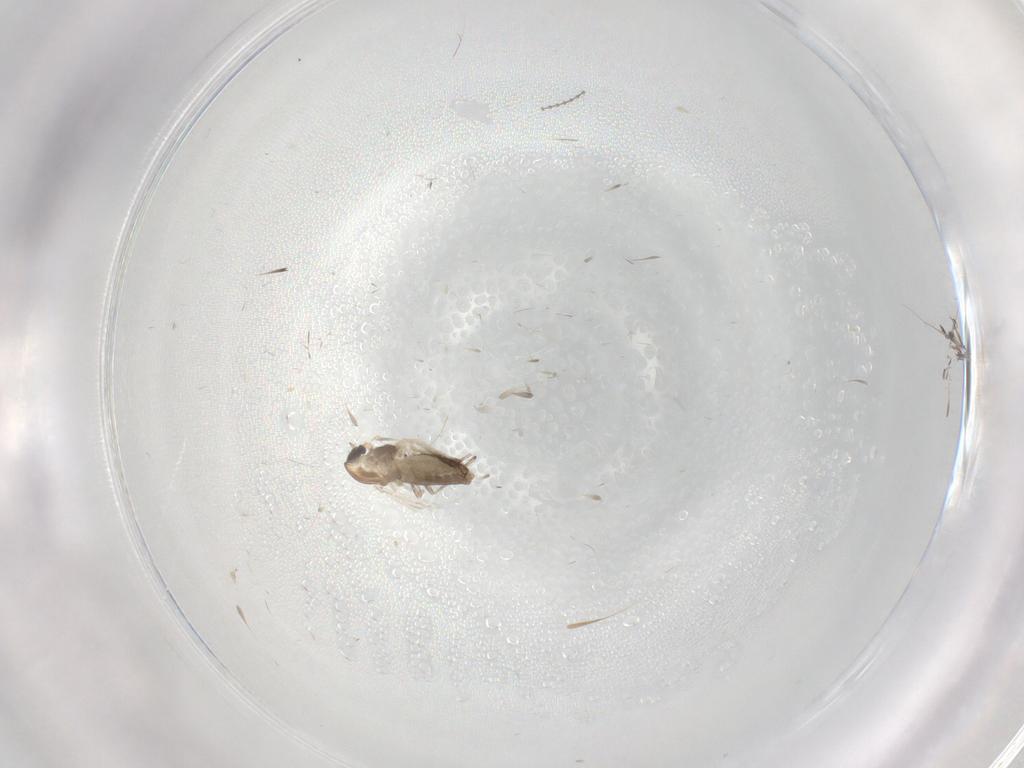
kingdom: Animalia
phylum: Arthropoda
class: Insecta
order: Diptera
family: Chironomidae
